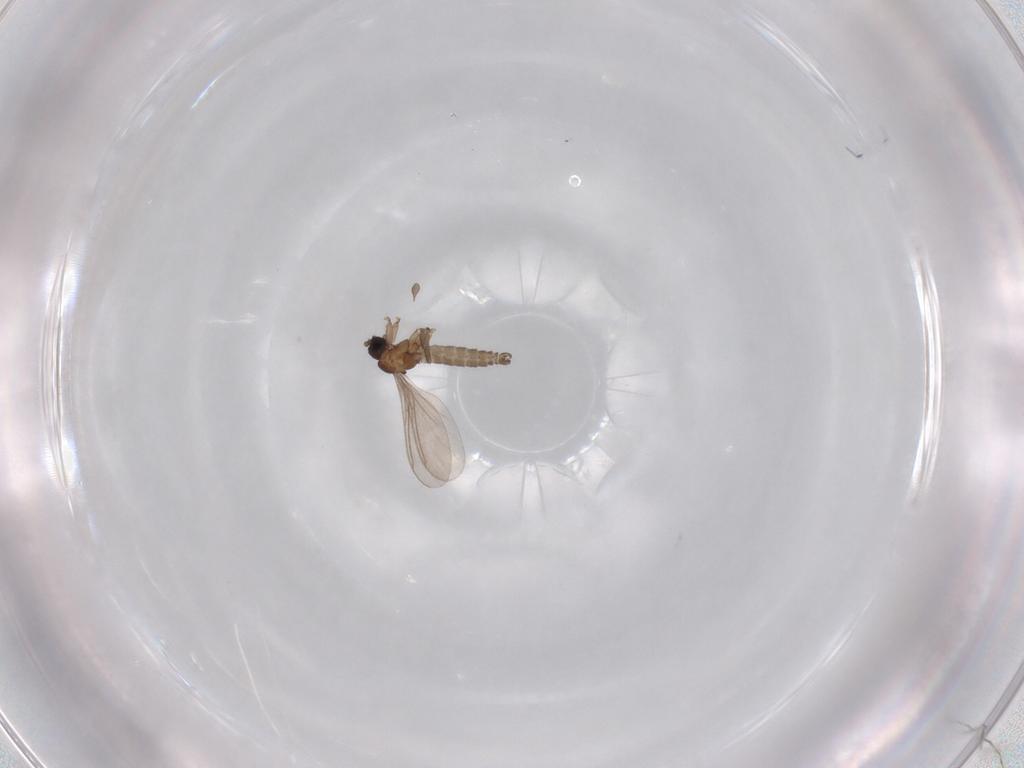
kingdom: Animalia
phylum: Arthropoda
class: Insecta
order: Diptera
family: Sciaridae
